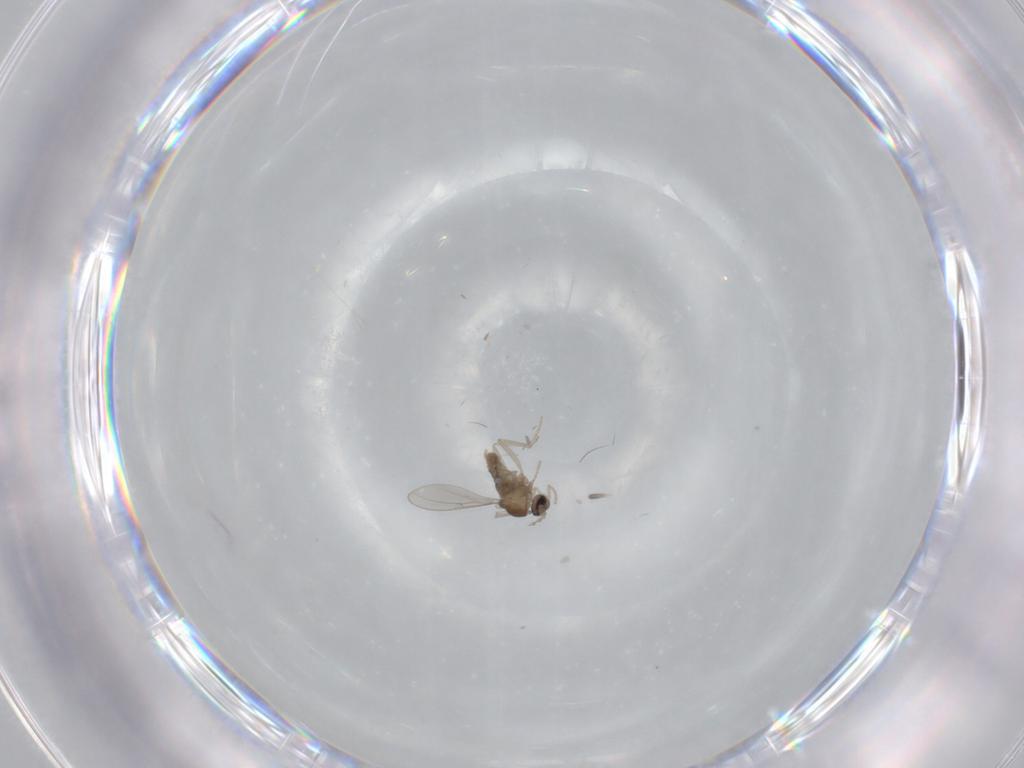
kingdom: Animalia
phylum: Arthropoda
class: Insecta
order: Diptera
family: Cecidomyiidae
